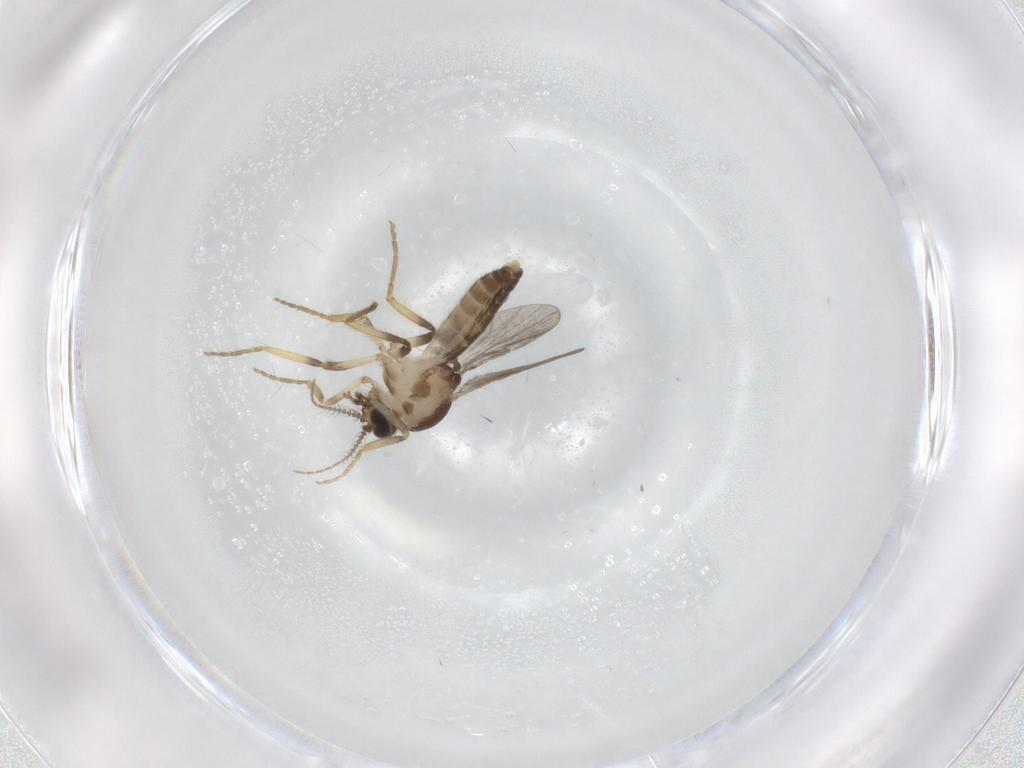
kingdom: Animalia
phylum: Arthropoda
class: Insecta
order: Diptera
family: Ceratopogonidae
